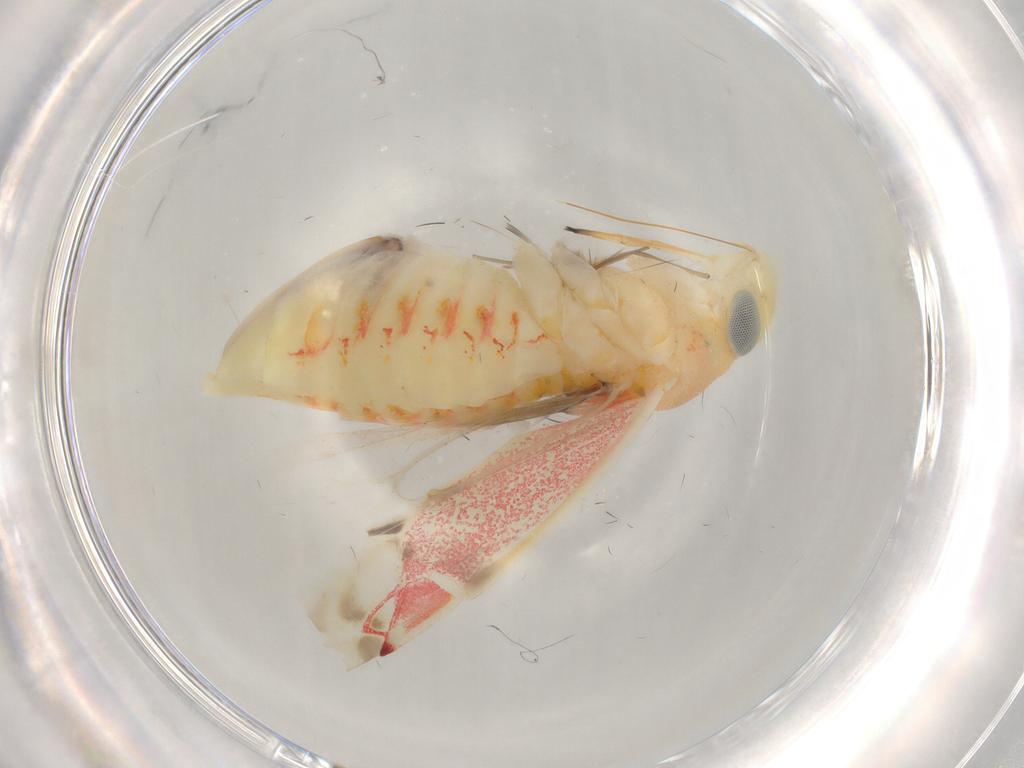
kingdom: Animalia
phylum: Arthropoda
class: Insecta
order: Hemiptera
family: Miridae
